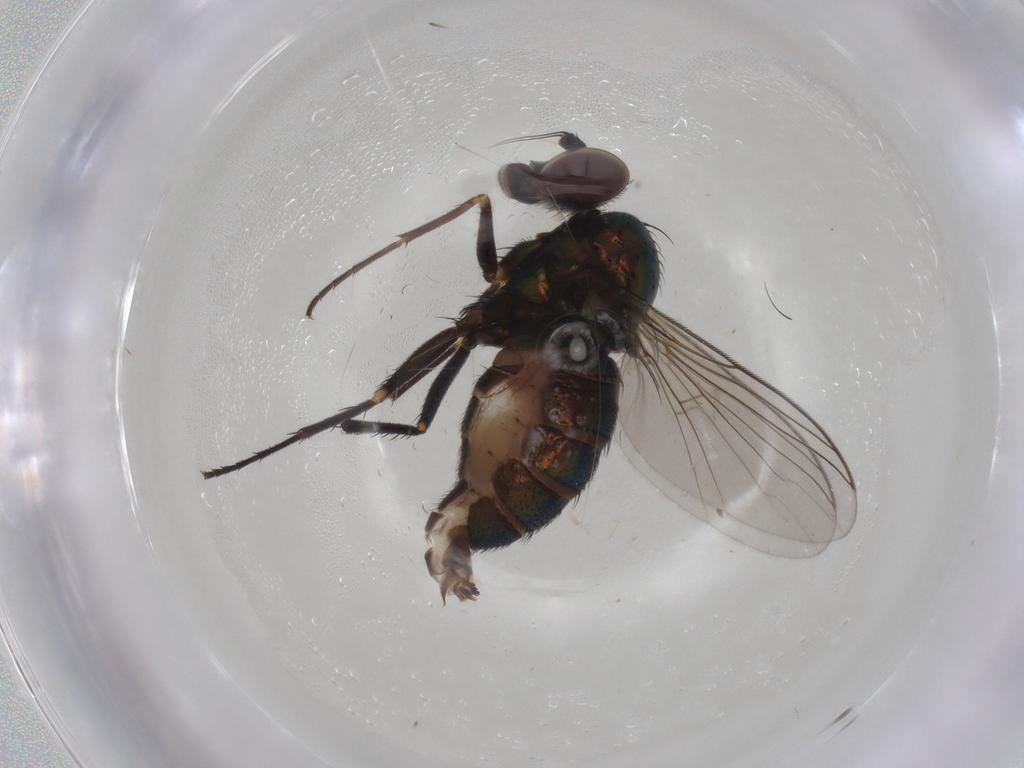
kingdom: Animalia
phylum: Arthropoda
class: Insecta
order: Diptera
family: Dolichopodidae
